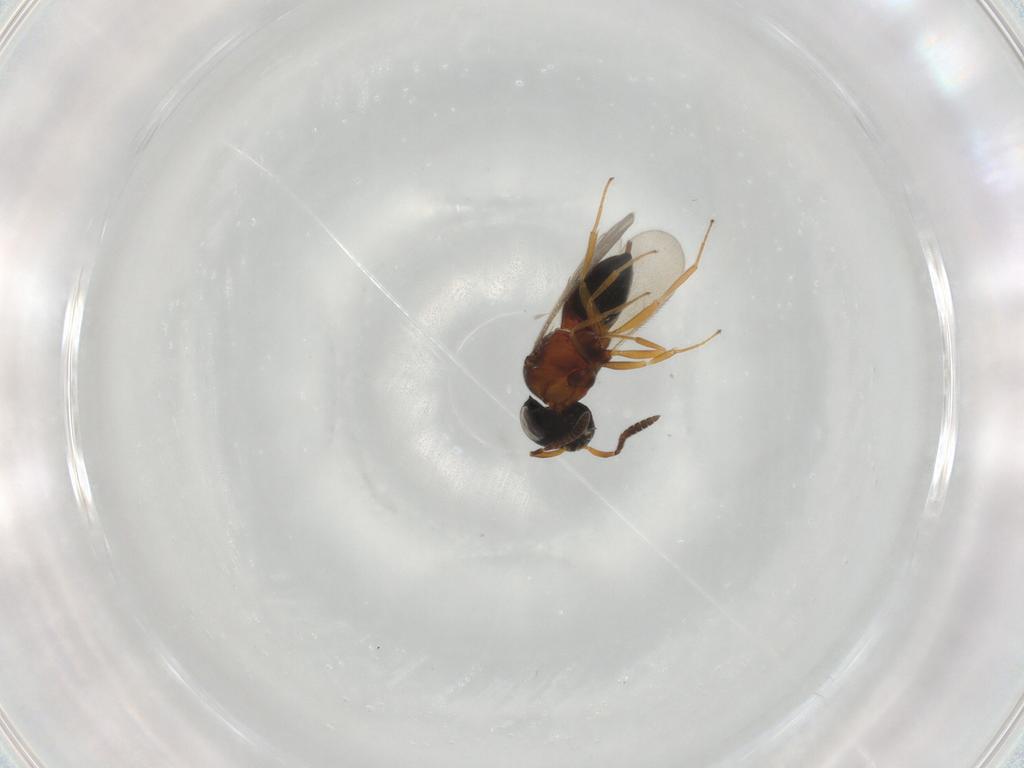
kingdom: Animalia
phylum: Arthropoda
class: Insecta
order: Hymenoptera
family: Scelionidae
